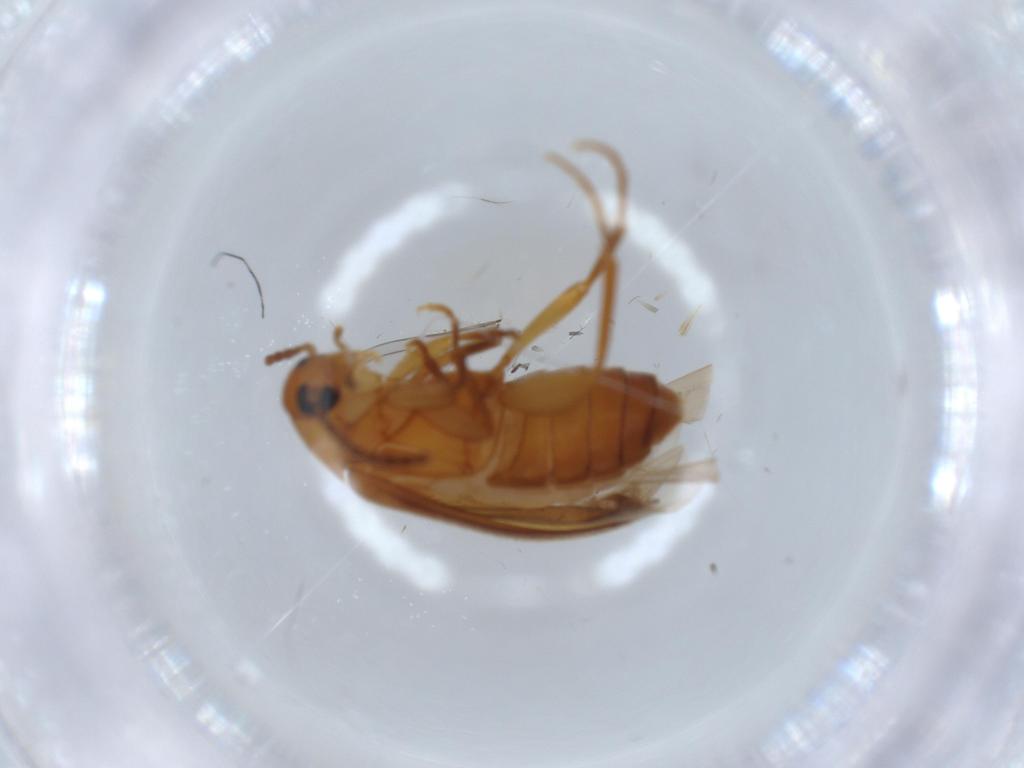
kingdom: Animalia
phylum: Arthropoda
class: Insecta
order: Coleoptera
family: Scraptiidae
